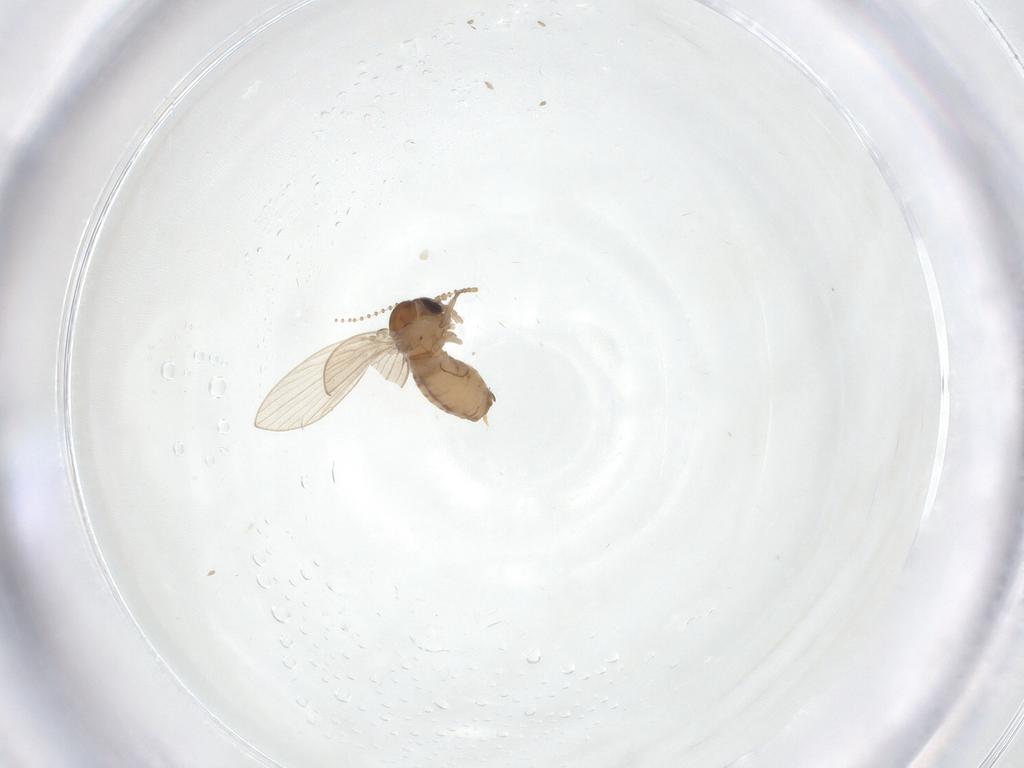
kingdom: Animalia
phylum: Arthropoda
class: Insecta
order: Diptera
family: Psychodidae
